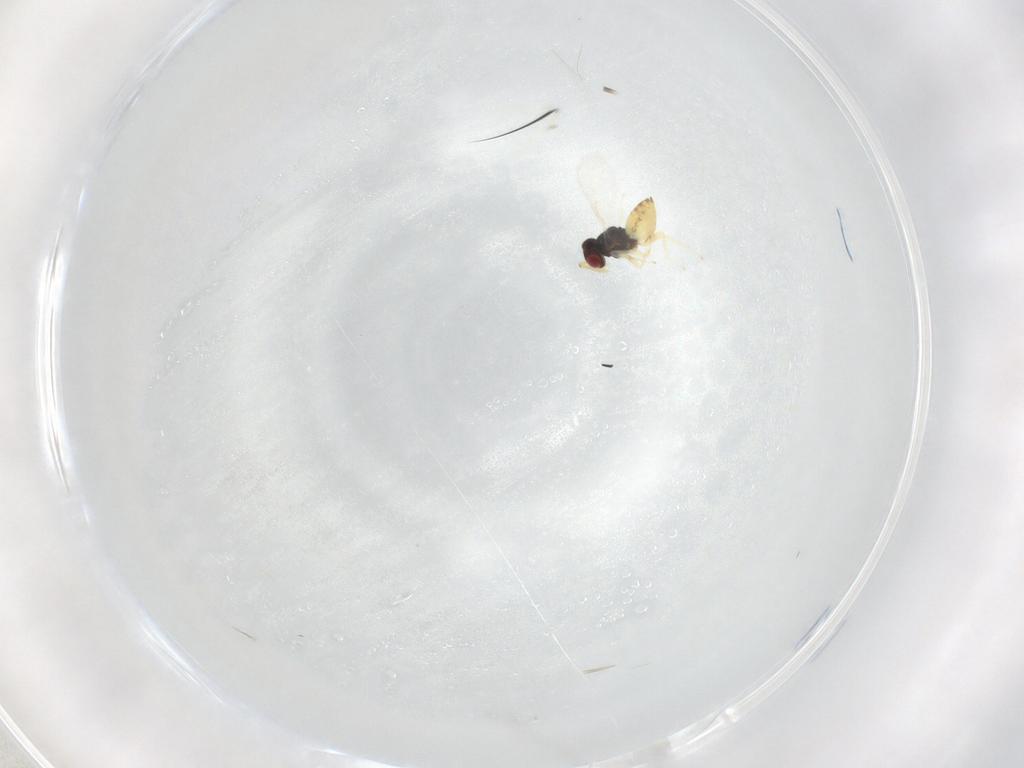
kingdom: Animalia
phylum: Arthropoda
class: Insecta
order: Hymenoptera
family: Eulophidae
